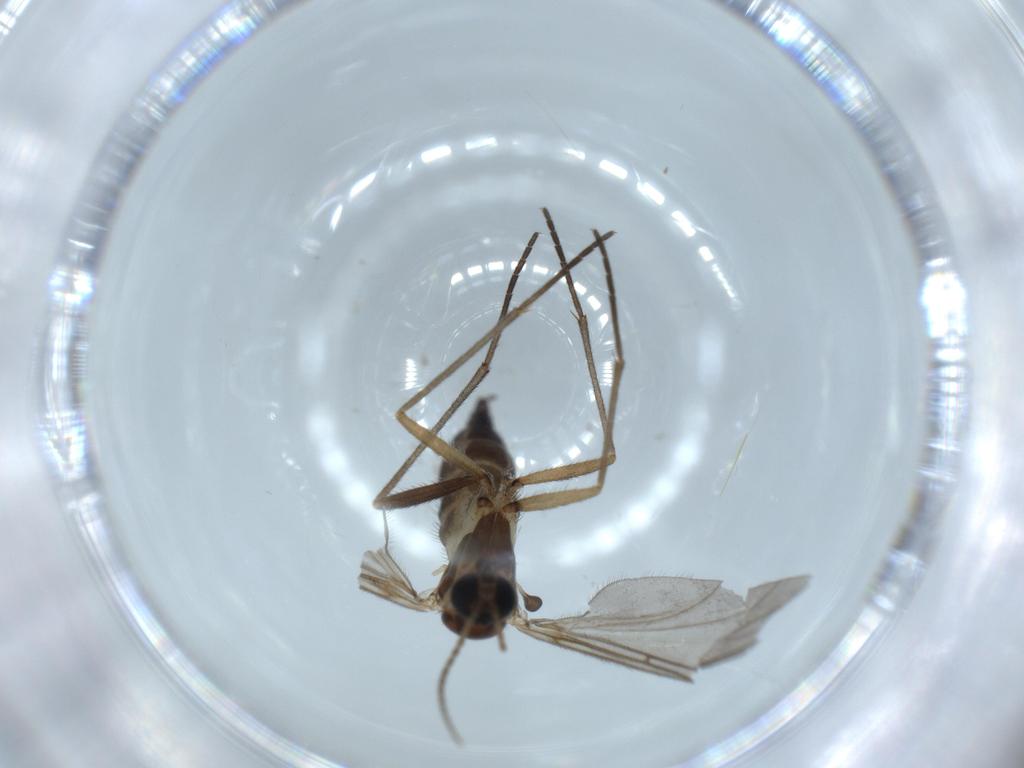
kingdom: Animalia
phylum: Arthropoda
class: Insecta
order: Diptera
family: Sciaridae
